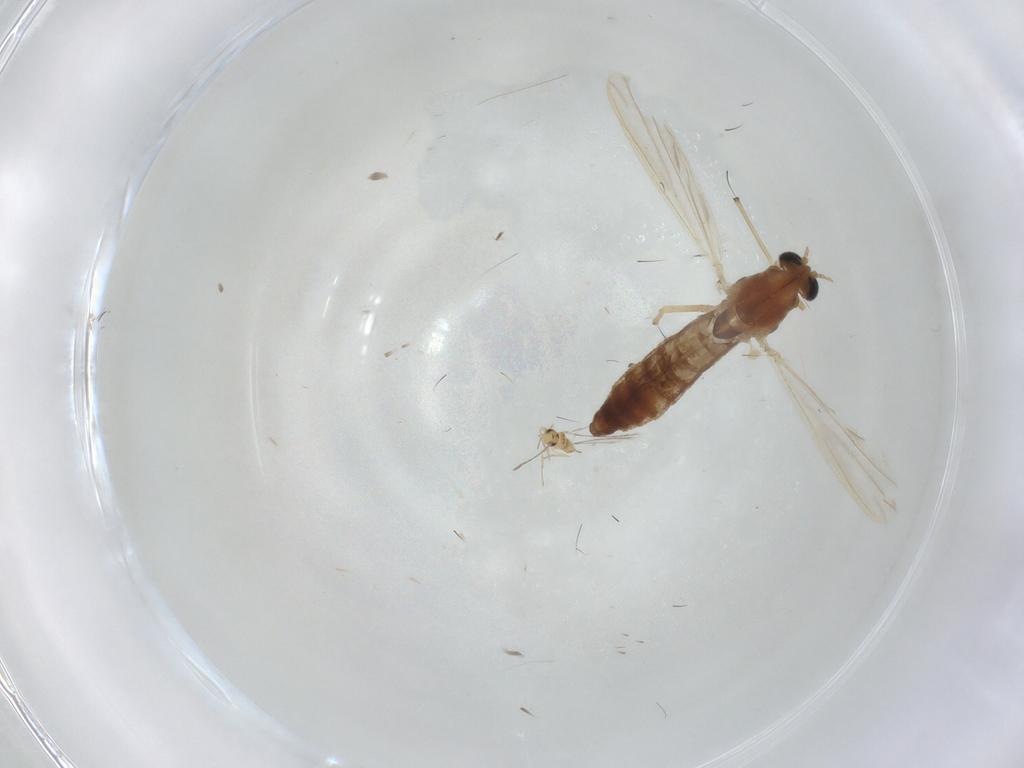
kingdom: Animalia
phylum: Arthropoda
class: Insecta
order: Diptera
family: Sciaridae
